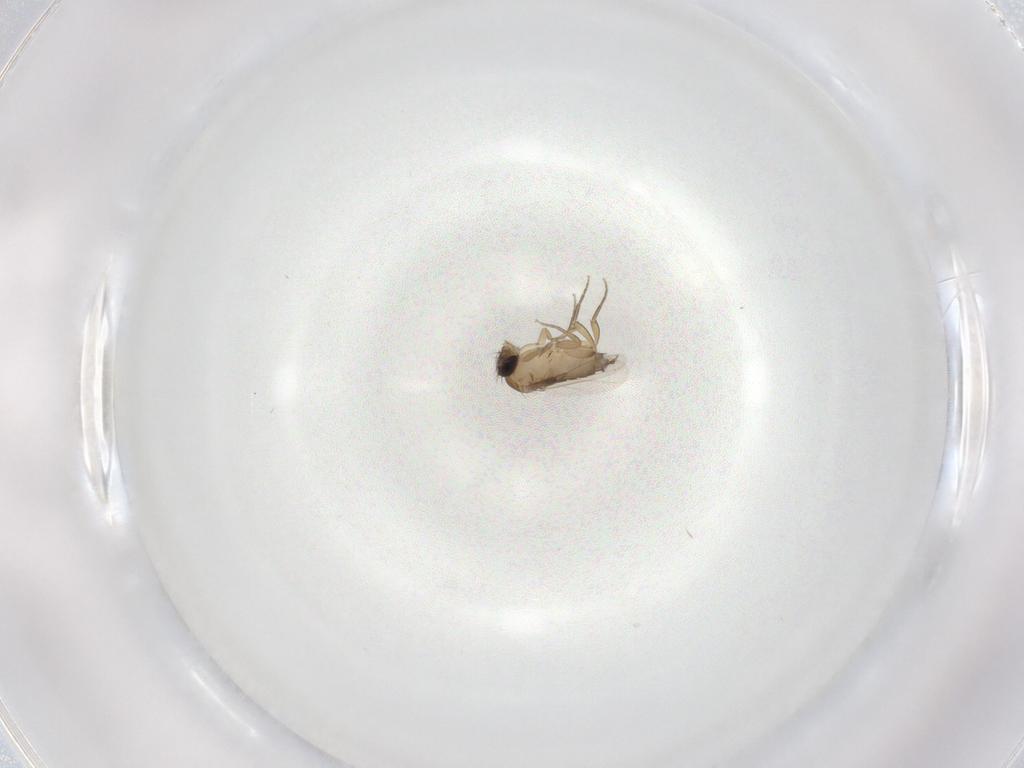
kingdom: Animalia
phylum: Arthropoda
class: Insecta
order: Diptera
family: Phoridae
